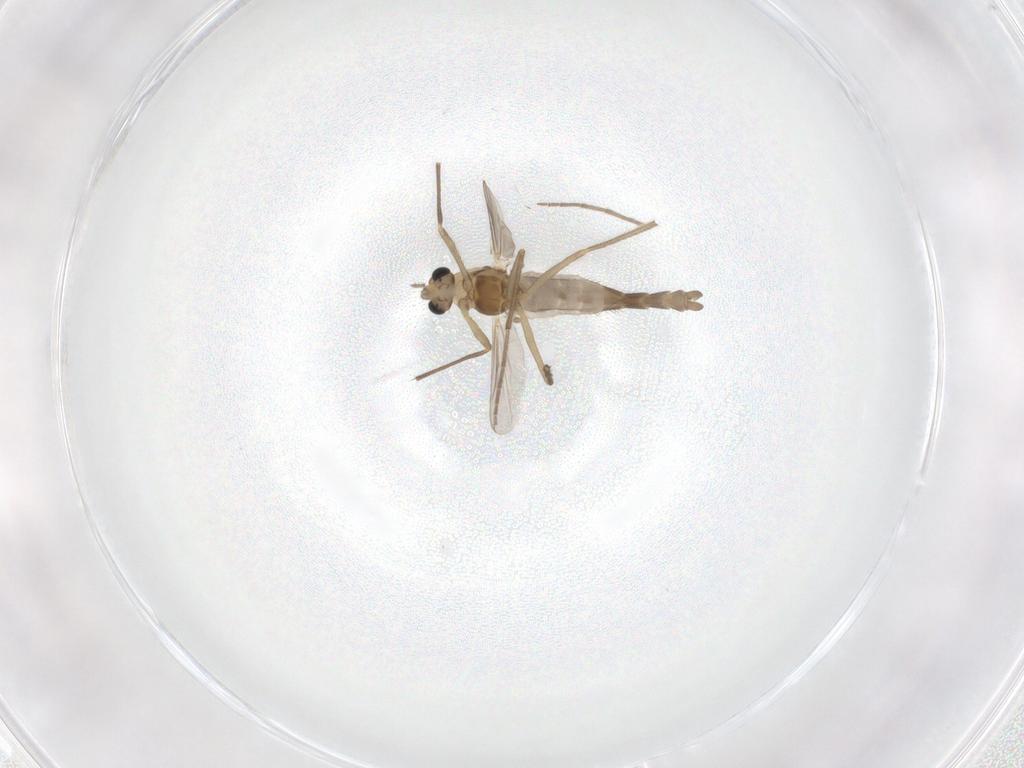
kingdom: Animalia
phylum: Arthropoda
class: Insecta
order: Diptera
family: Chironomidae
